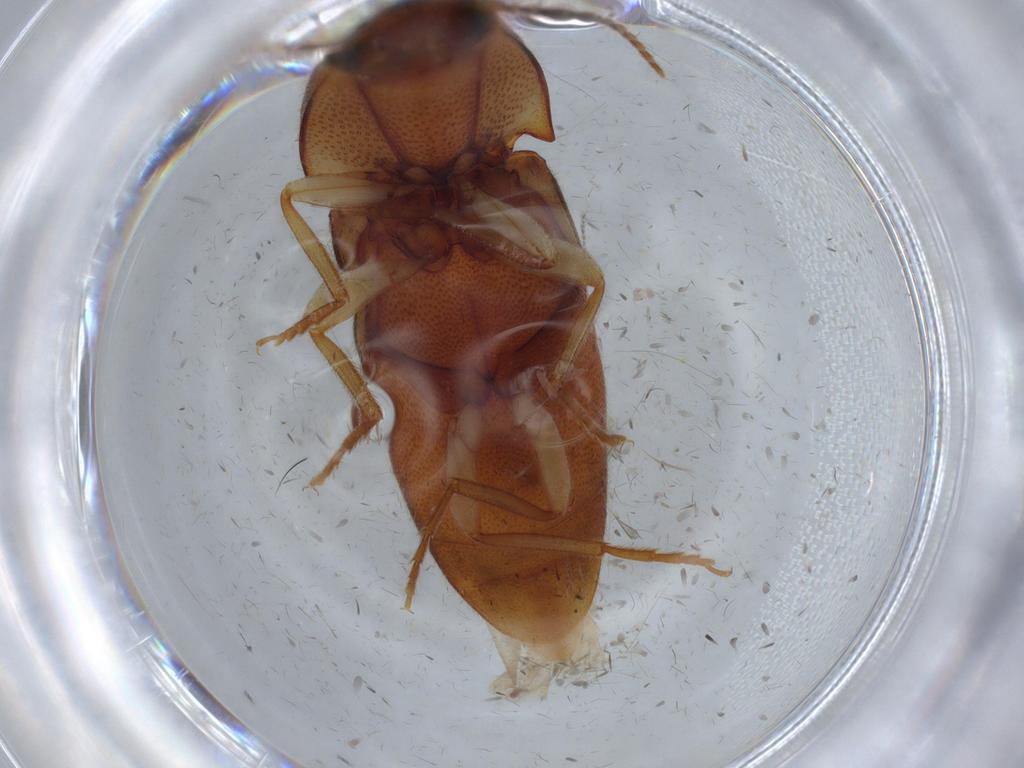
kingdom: Animalia
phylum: Arthropoda
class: Insecta
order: Coleoptera
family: Elateridae
